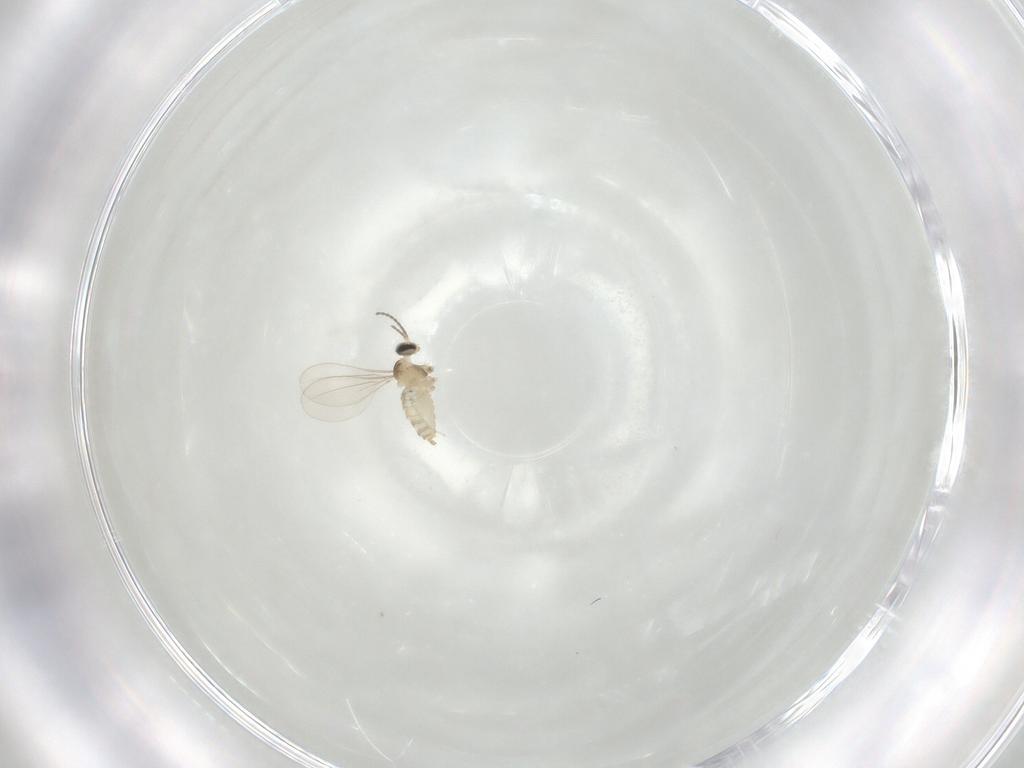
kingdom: Animalia
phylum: Arthropoda
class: Insecta
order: Diptera
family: Cecidomyiidae
